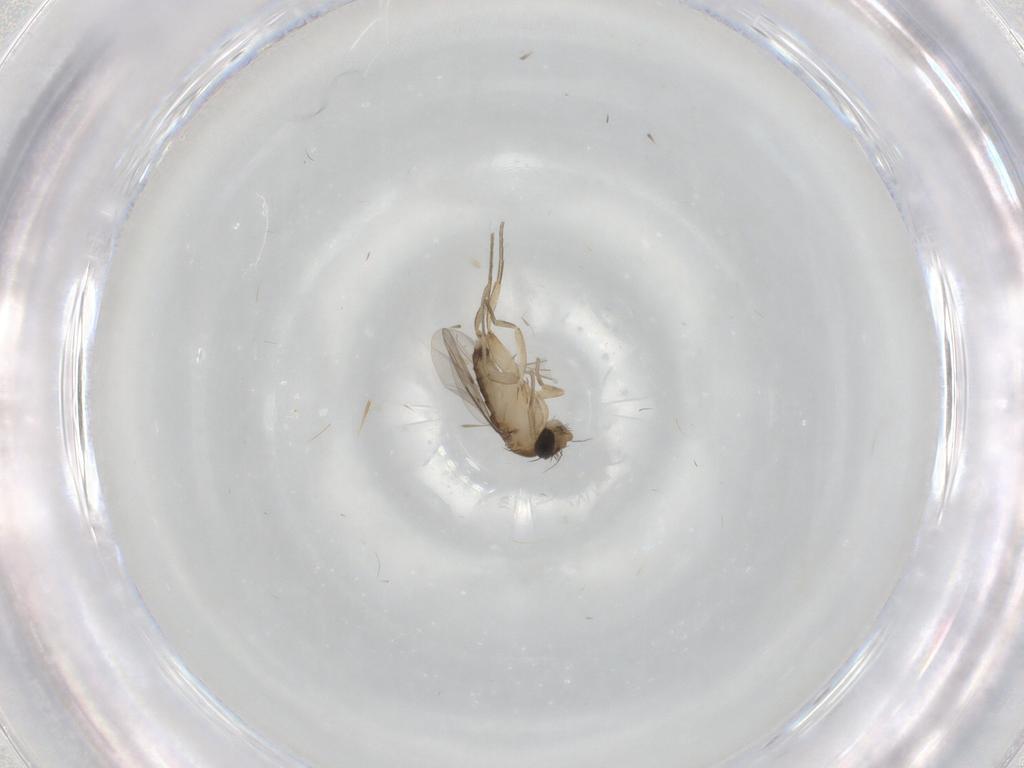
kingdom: Animalia
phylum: Arthropoda
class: Insecta
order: Diptera
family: Phoridae
